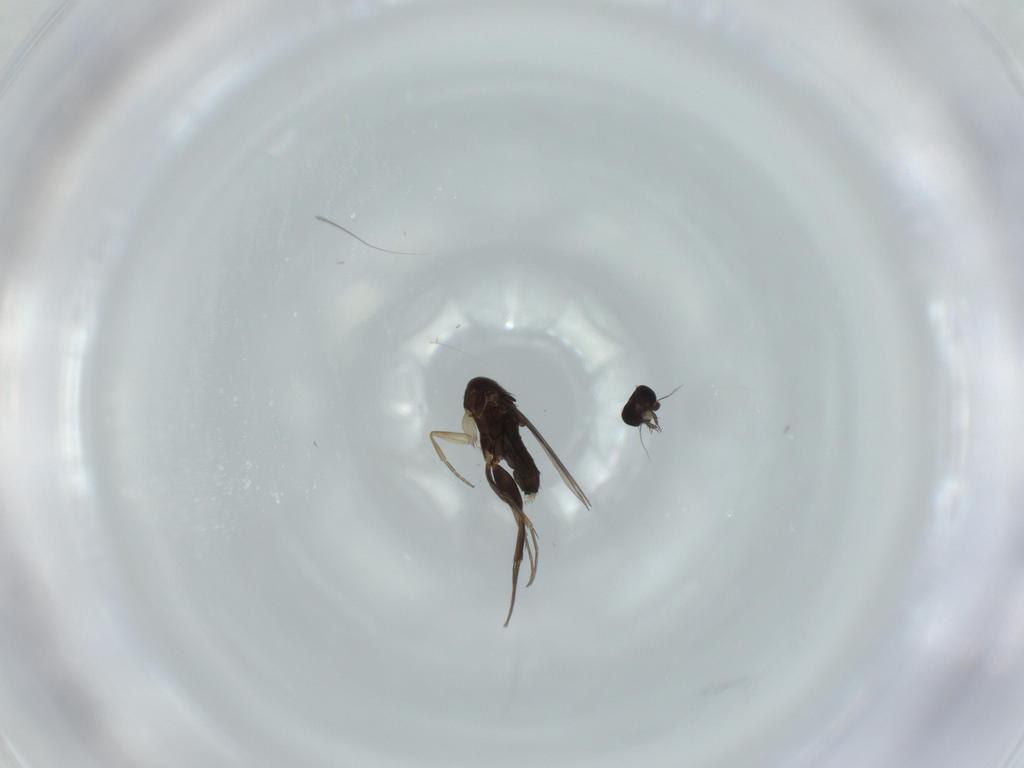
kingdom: Animalia
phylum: Arthropoda
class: Insecta
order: Diptera
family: Phoridae
